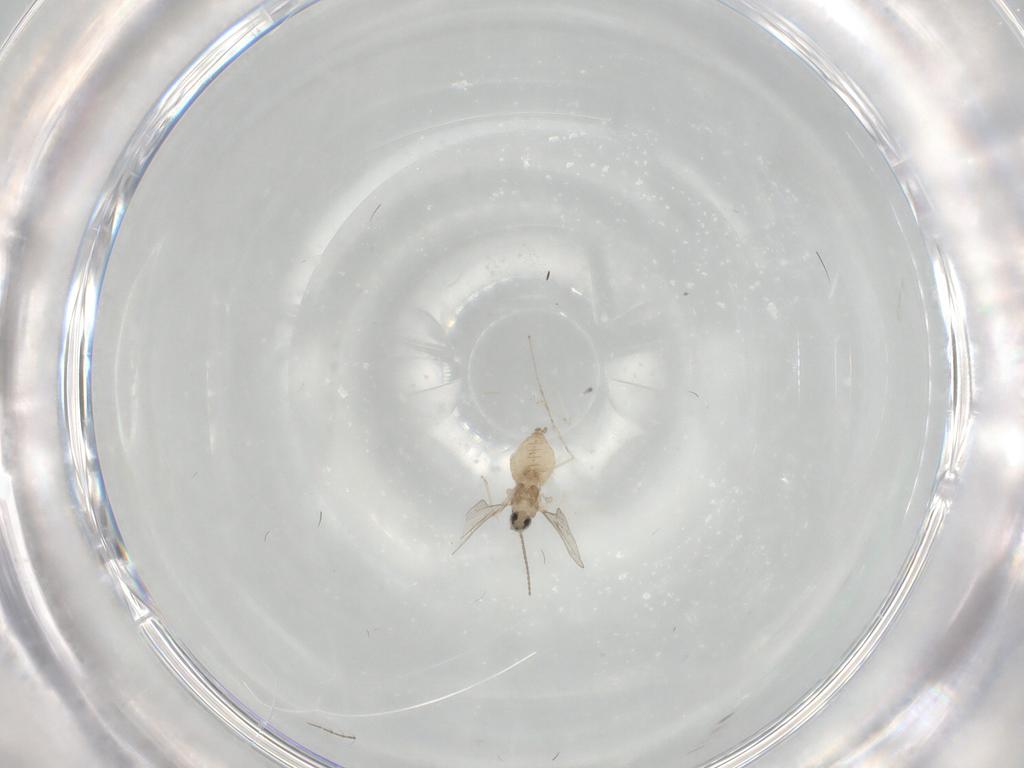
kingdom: Animalia
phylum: Arthropoda
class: Insecta
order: Diptera
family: Cecidomyiidae
